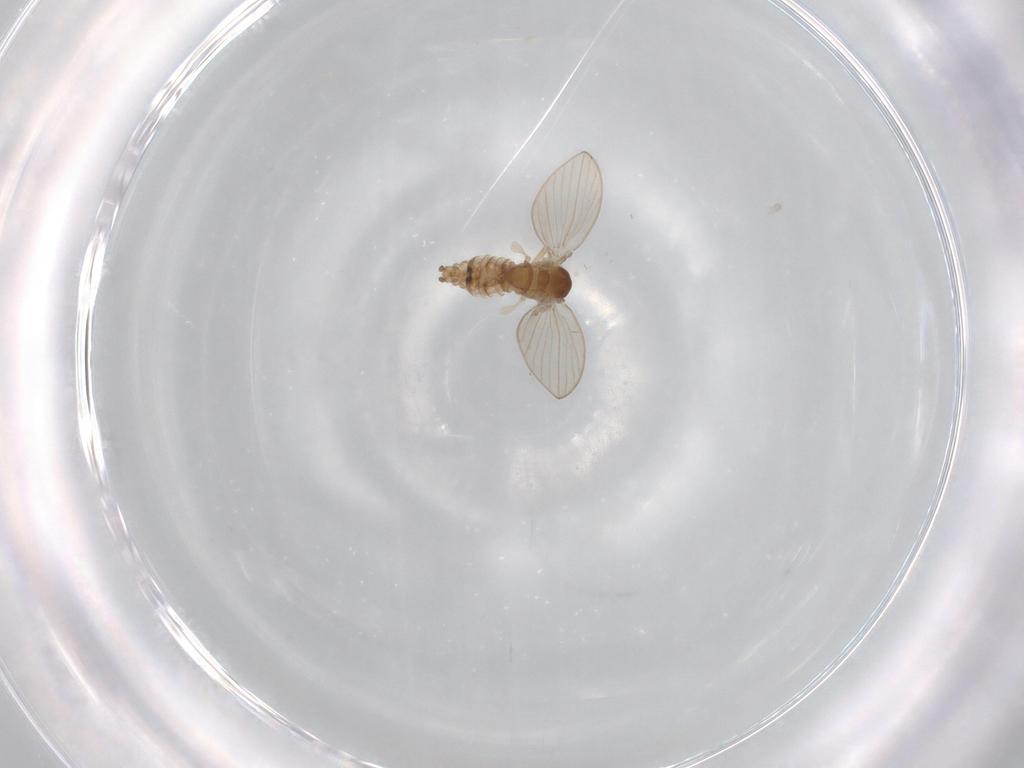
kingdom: Animalia
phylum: Arthropoda
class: Insecta
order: Diptera
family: Psychodidae
